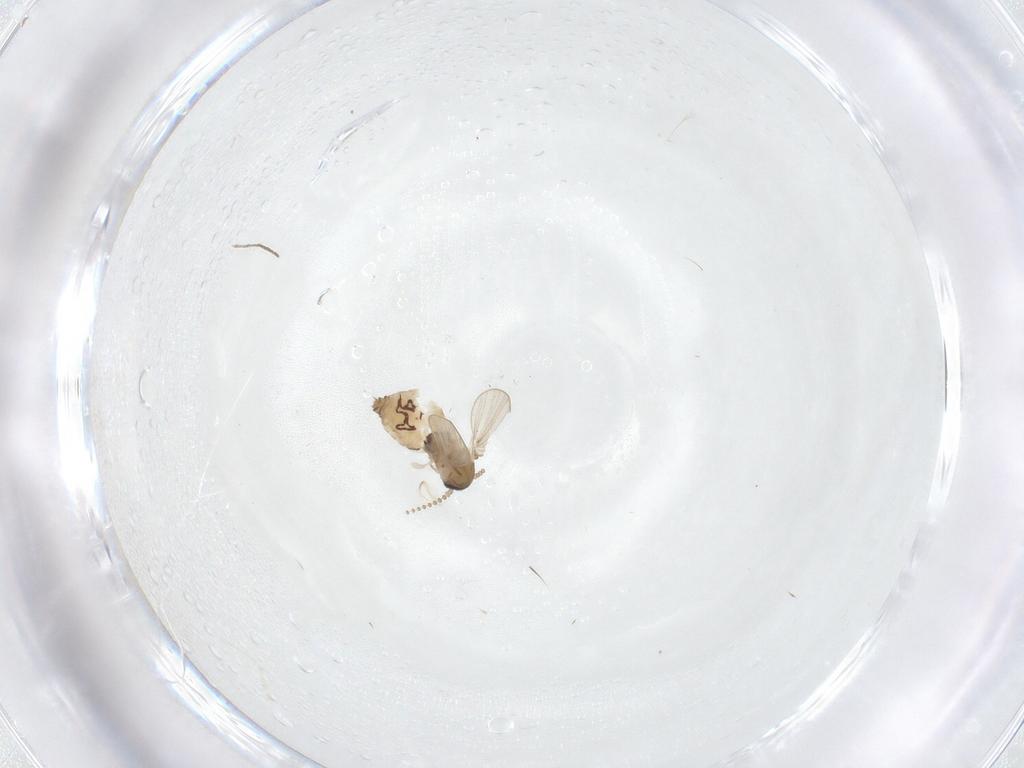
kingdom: Animalia
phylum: Arthropoda
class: Insecta
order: Diptera
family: Psychodidae
